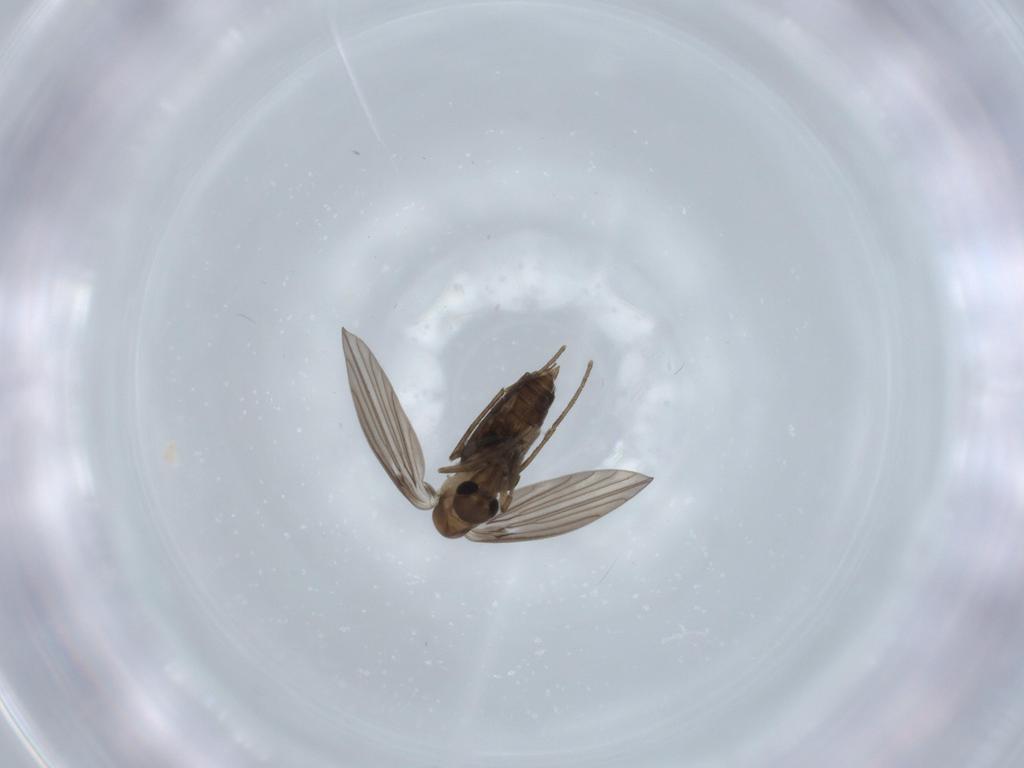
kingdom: Animalia
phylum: Arthropoda
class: Insecta
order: Diptera
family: Psychodidae
